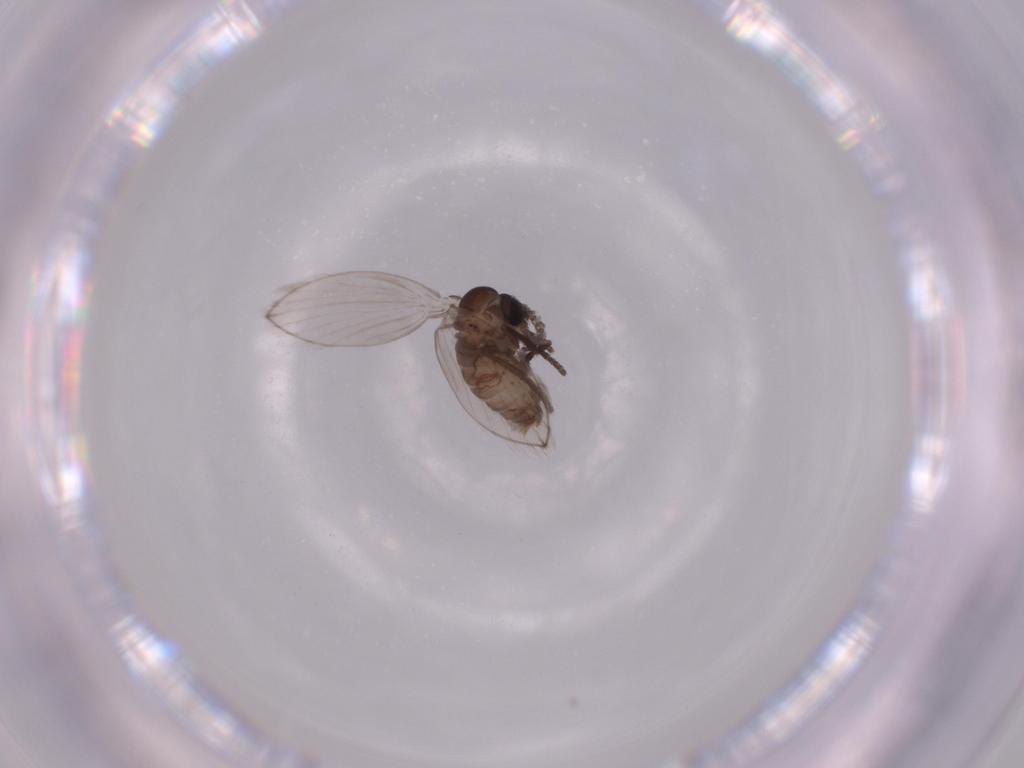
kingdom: Animalia
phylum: Arthropoda
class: Insecta
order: Diptera
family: Psychodidae
